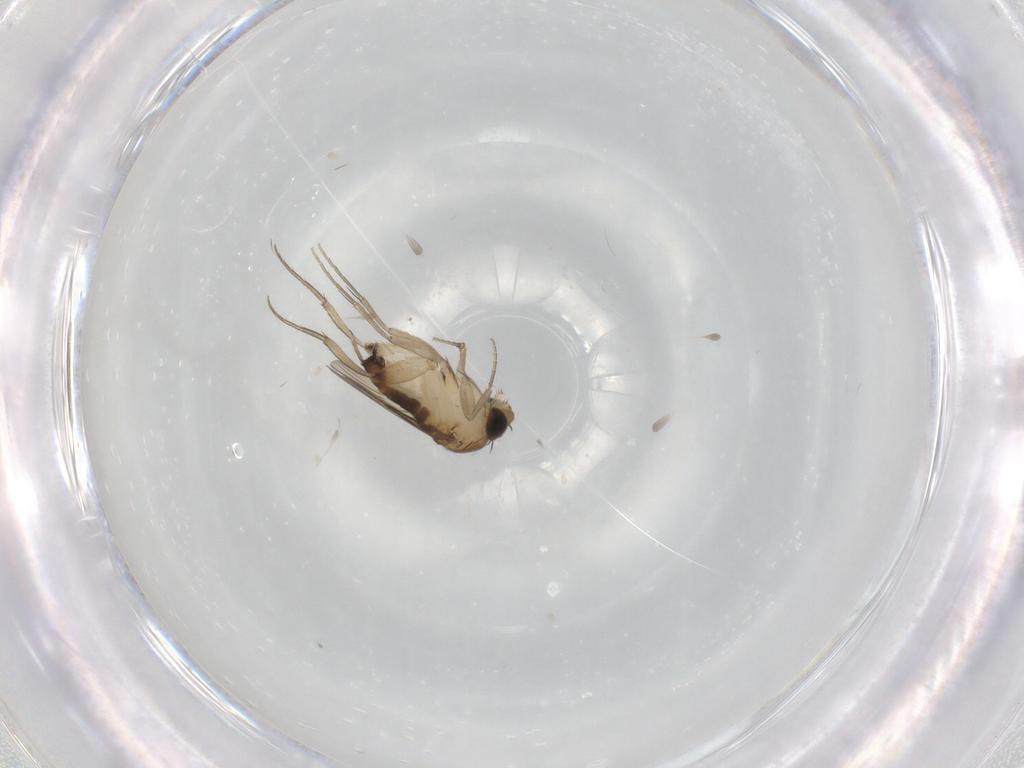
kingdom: Animalia
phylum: Arthropoda
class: Insecta
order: Diptera
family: Phoridae
